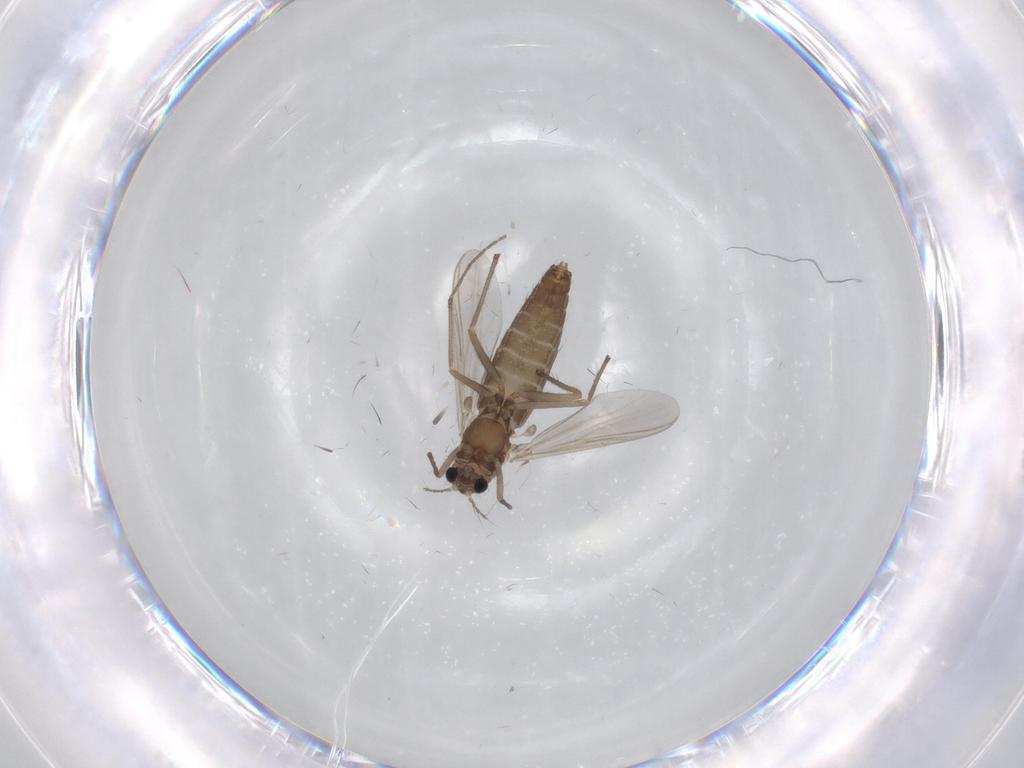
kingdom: Animalia
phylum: Arthropoda
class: Insecta
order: Diptera
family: Chironomidae
